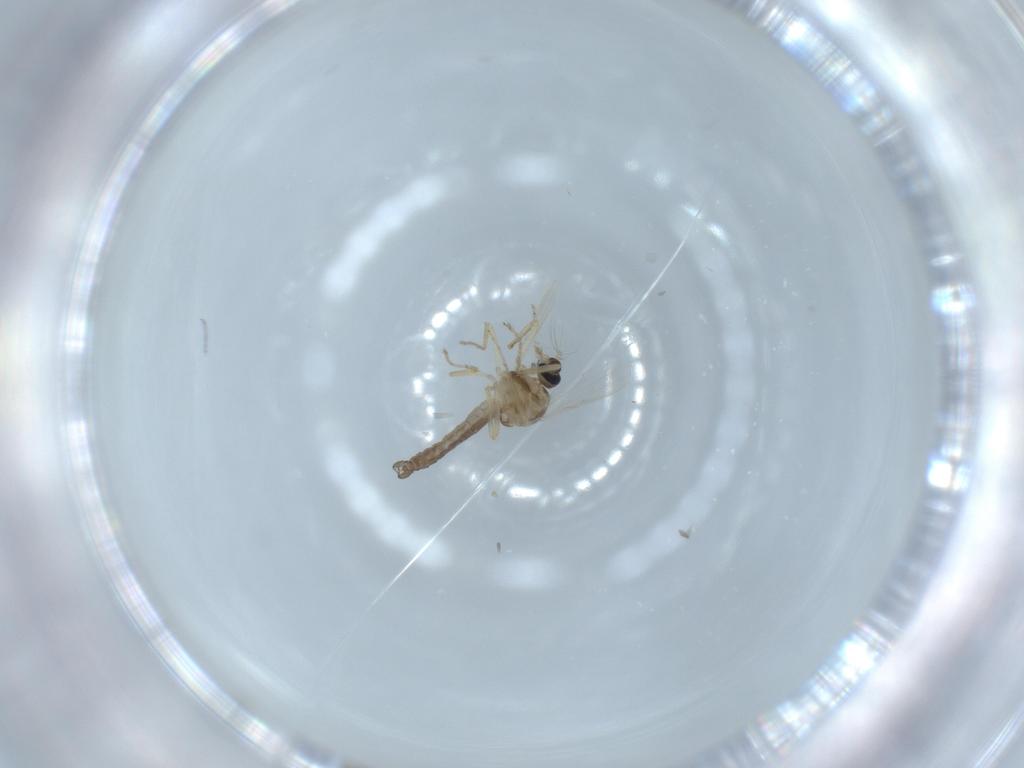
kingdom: Animalia
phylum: Arthropoda
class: Insecta
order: Diptera
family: Ceratopogonidae
